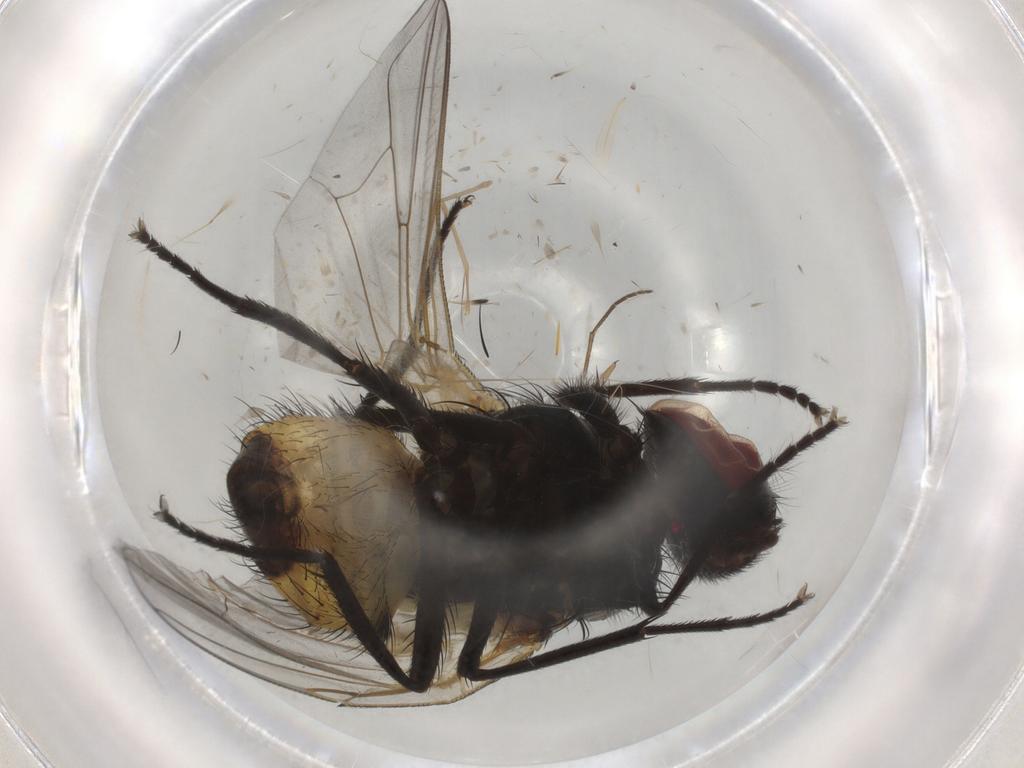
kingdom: Animalia
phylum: Arthropoda
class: Insecta
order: Diptera
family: Muscidae
